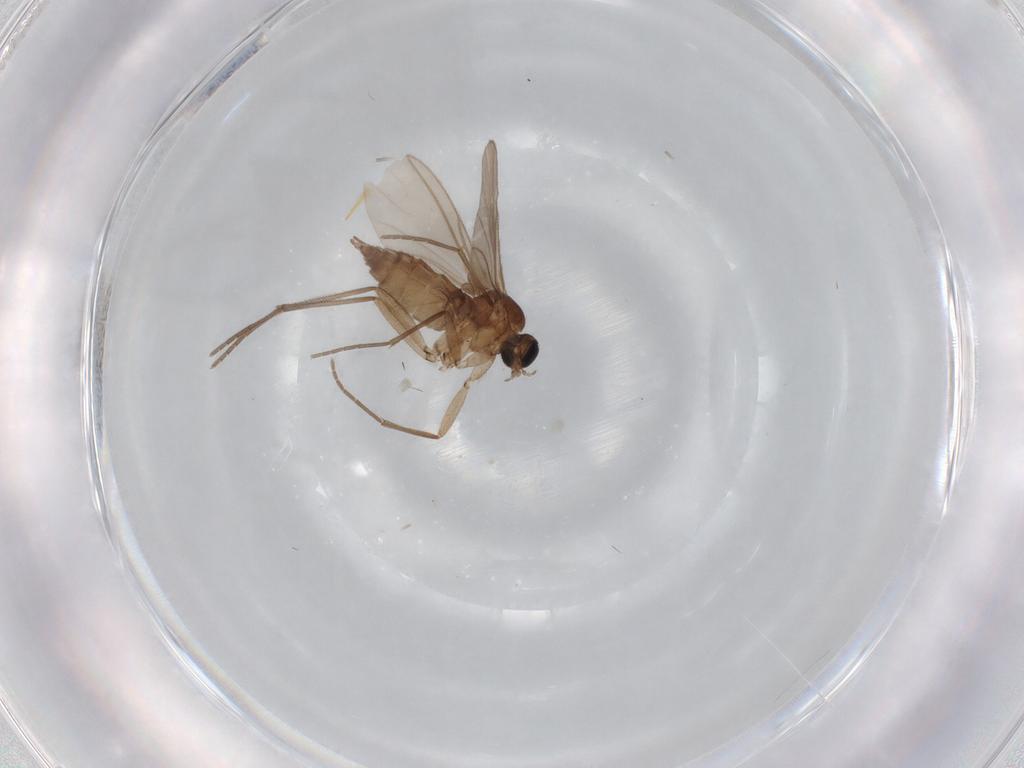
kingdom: Animalia
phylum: Arthropoda
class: Insecta
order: Diptera
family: Sciaridae
